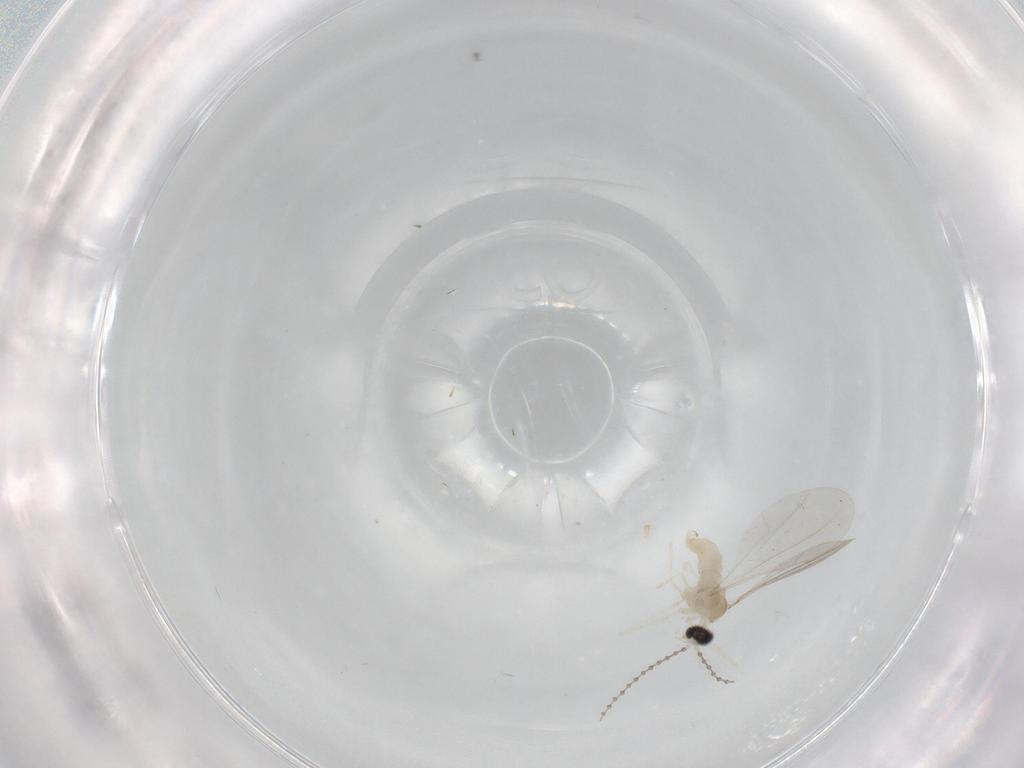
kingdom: Animalia
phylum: Arthropoda
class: Insecta
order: Diptera
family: Cecidomyiidae
